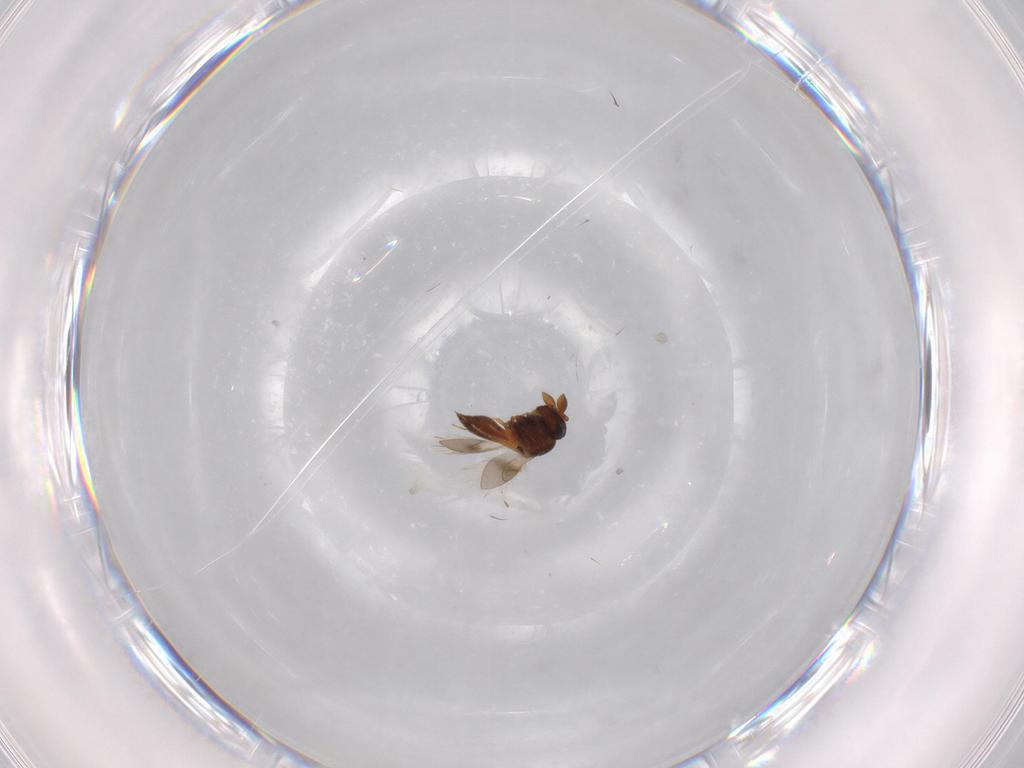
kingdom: Animalia
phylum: Arthropoda
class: Insecta
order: Hymenoptera
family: Scelionidae
